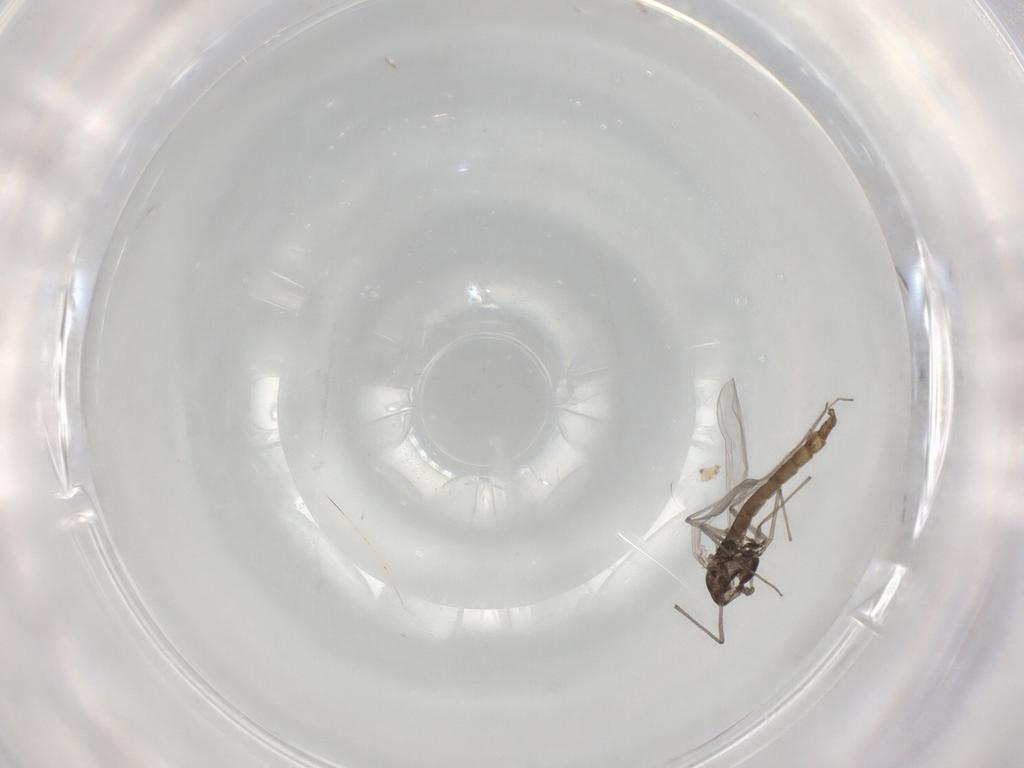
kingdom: Animalia
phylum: Arthropoda
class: Insecta
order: Diptera
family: Chironomidae
